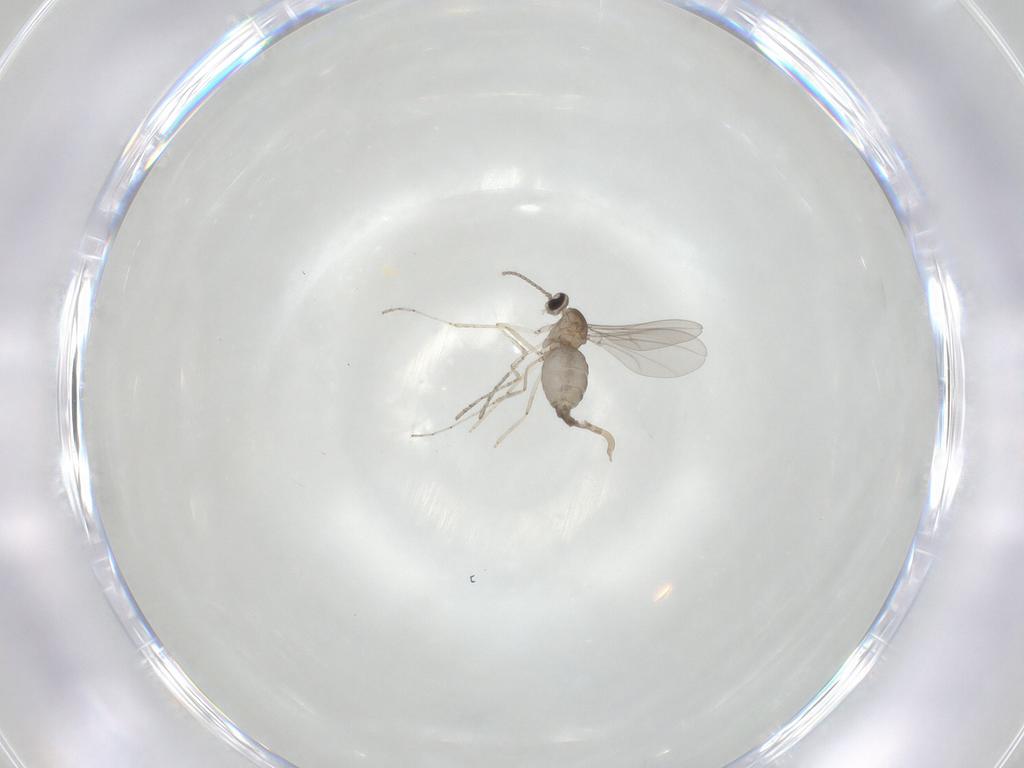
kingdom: Animalia
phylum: Arthropoda
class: Insecta
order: Diptera
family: Cecidomyiidae
